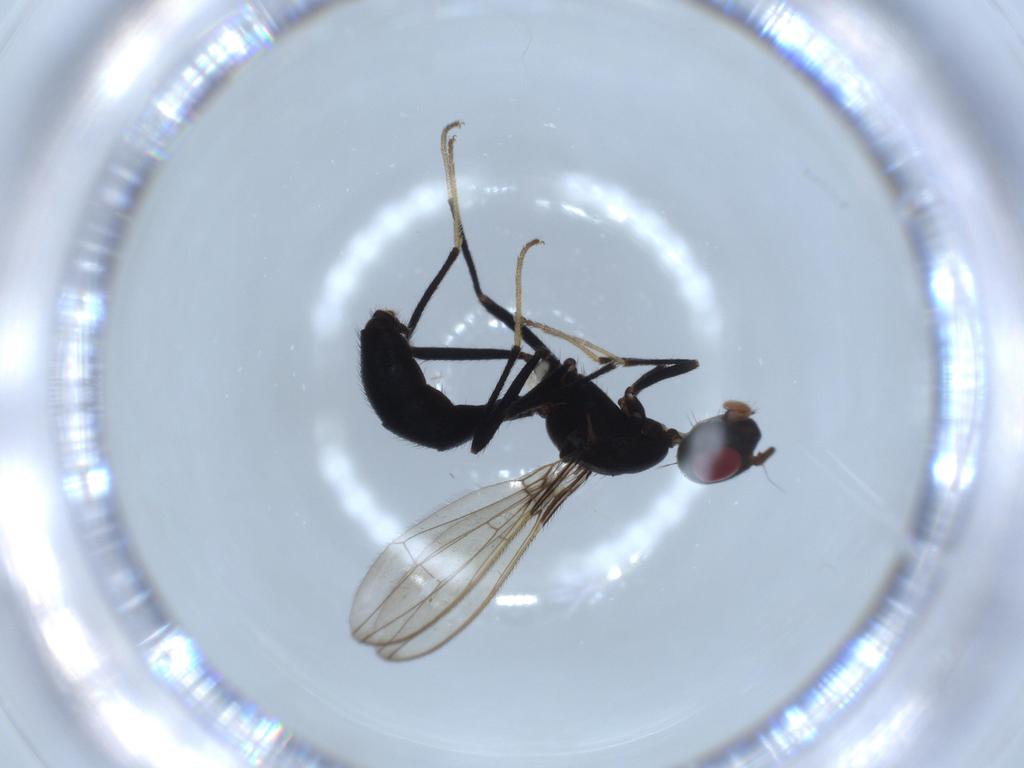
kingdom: Animalia
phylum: Arthropoda
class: Insecta
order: Diptera
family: Richardiidae
